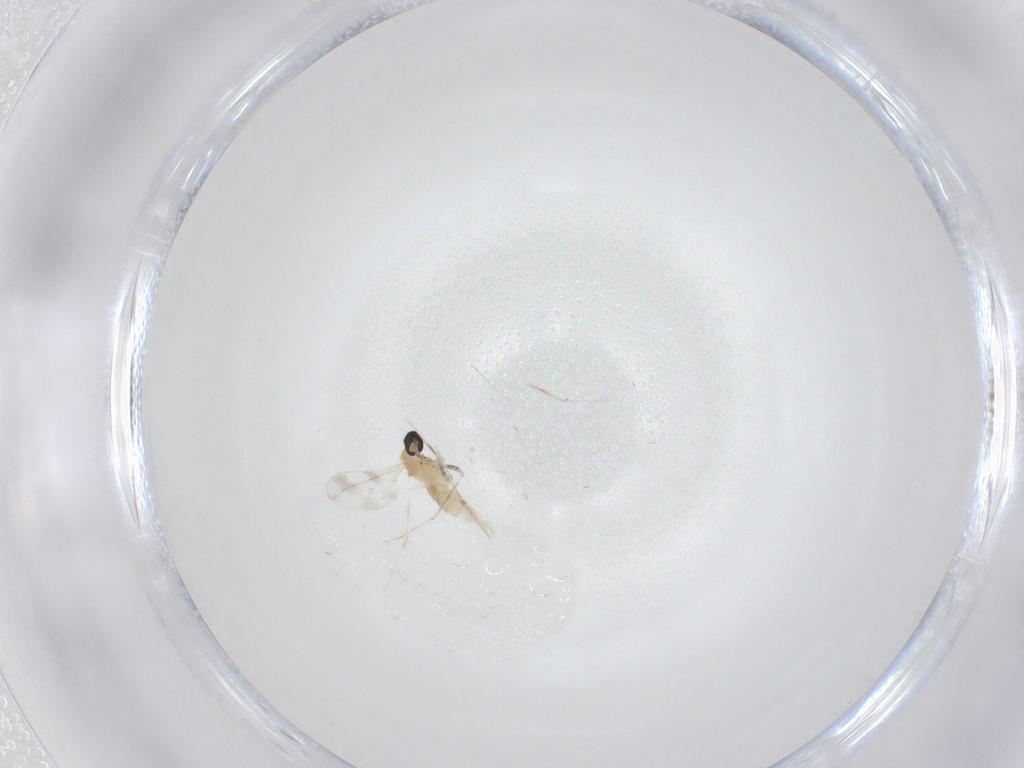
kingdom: Animalia
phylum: Arthropoda
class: Insecta
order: Diptera
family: Cecidomyiidae
